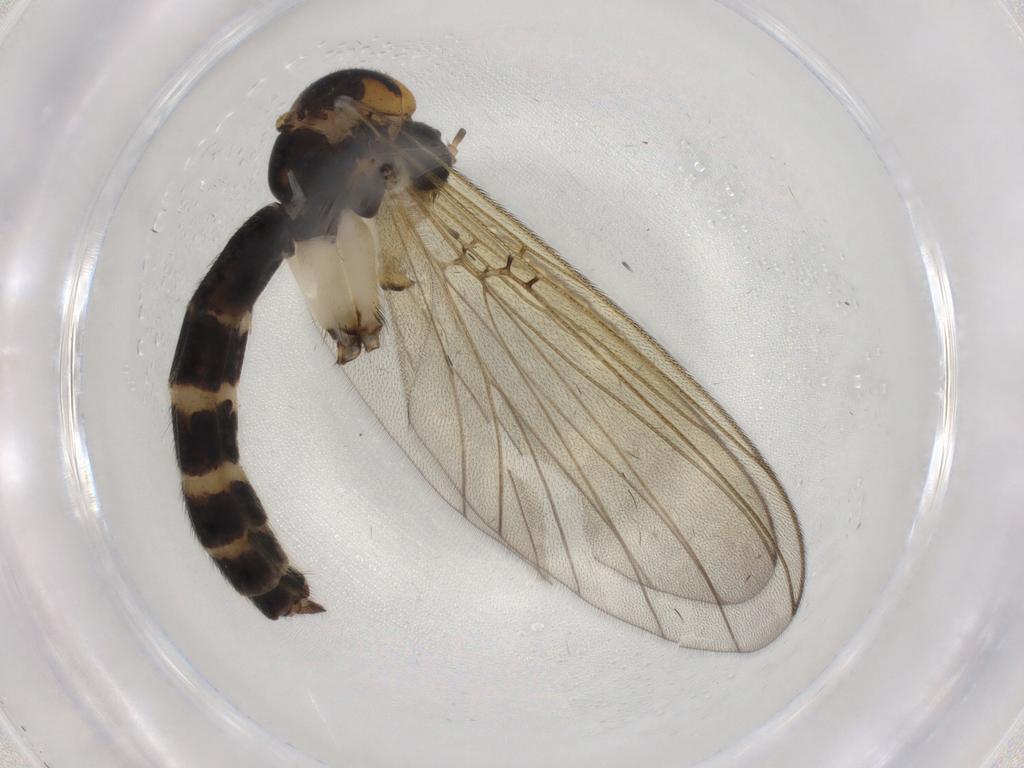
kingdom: Animalia
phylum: Arthropoda
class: Insecta
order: Diptera
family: Mycetophilidae
